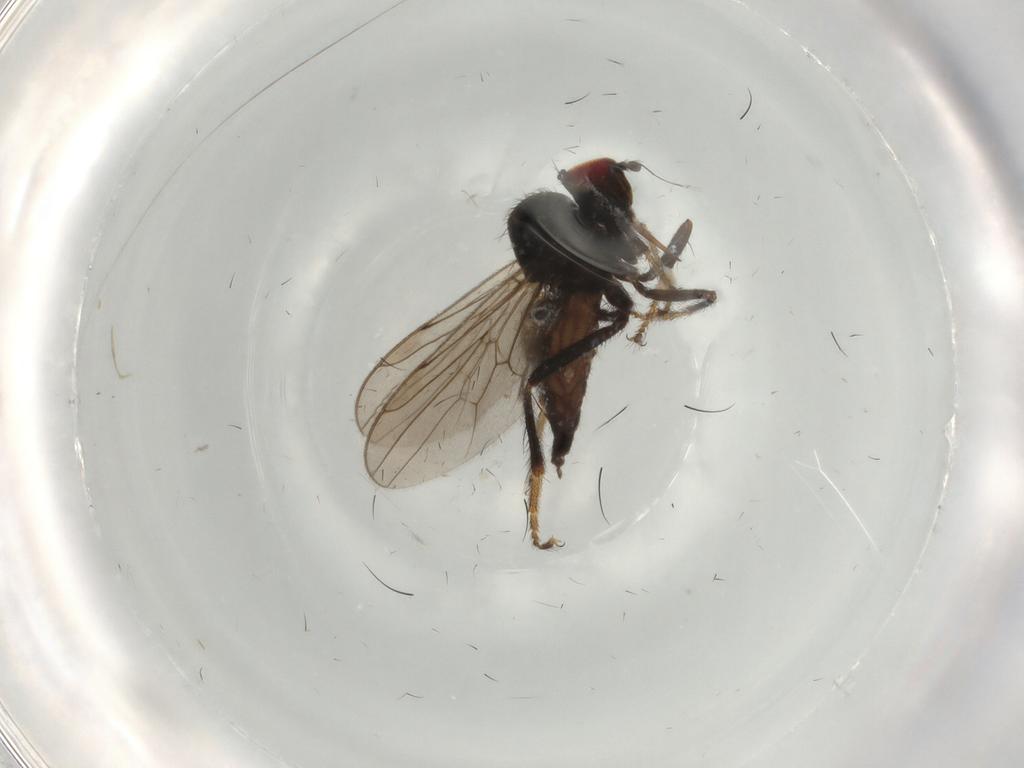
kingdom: Animalia
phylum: Arthropoda
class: Insecta
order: Diptera
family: Hybotidae
